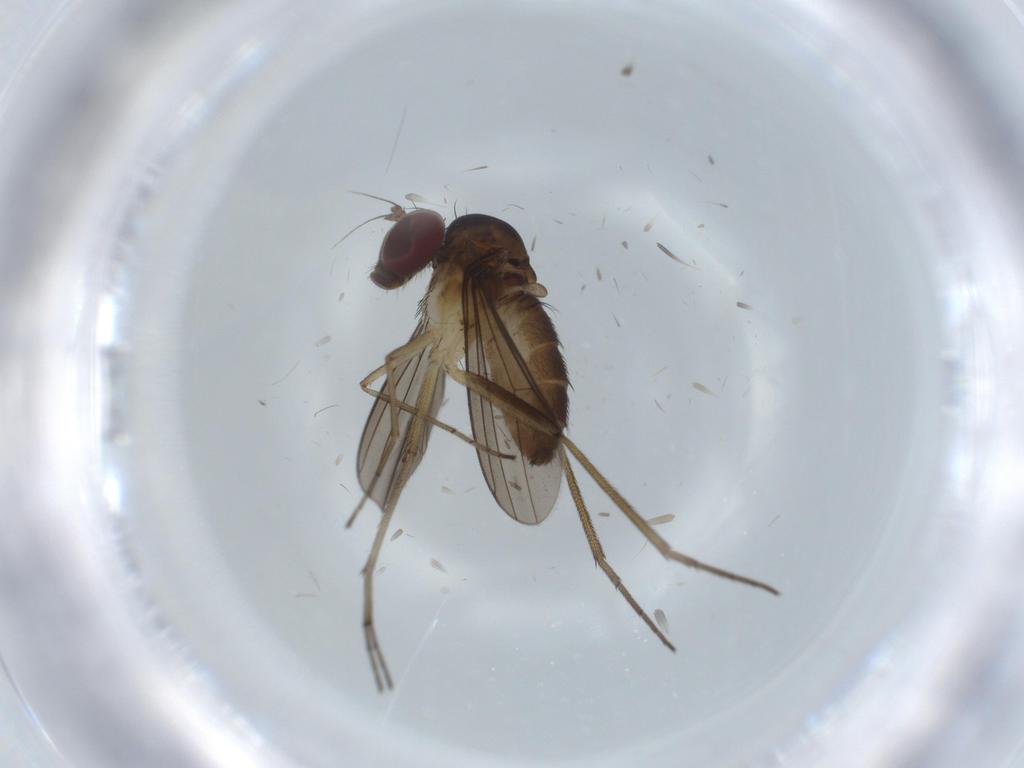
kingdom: Animalia
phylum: Arthropoda
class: Insecta
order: Diptera
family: Dolichopodidae
